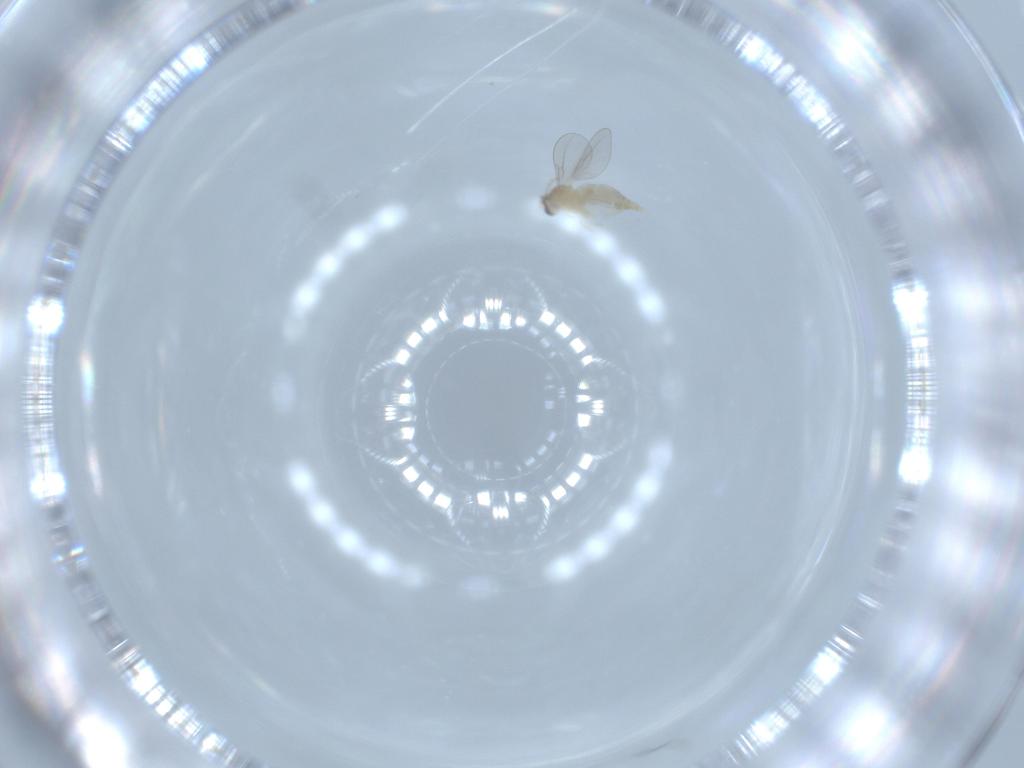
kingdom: Animalia
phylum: Arthropoda
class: Insecta
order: Diptera
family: Cecidomyiidae
